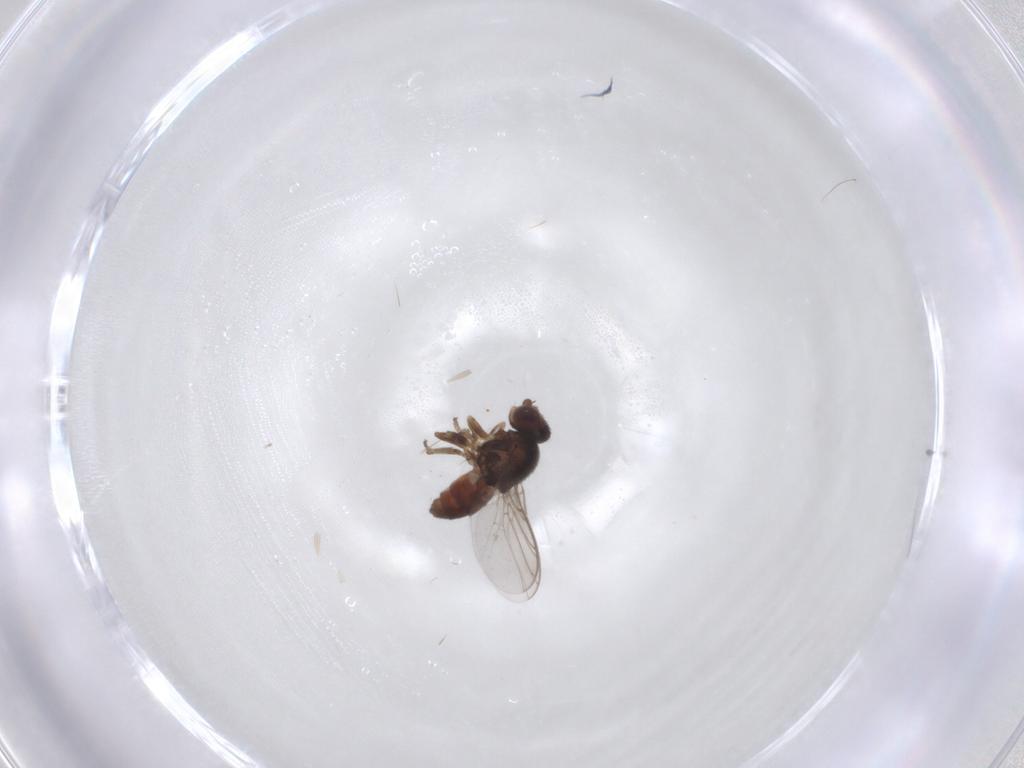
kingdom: Animalia
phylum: Arthropoda
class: Insecta
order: Diptera
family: Chloropidae
